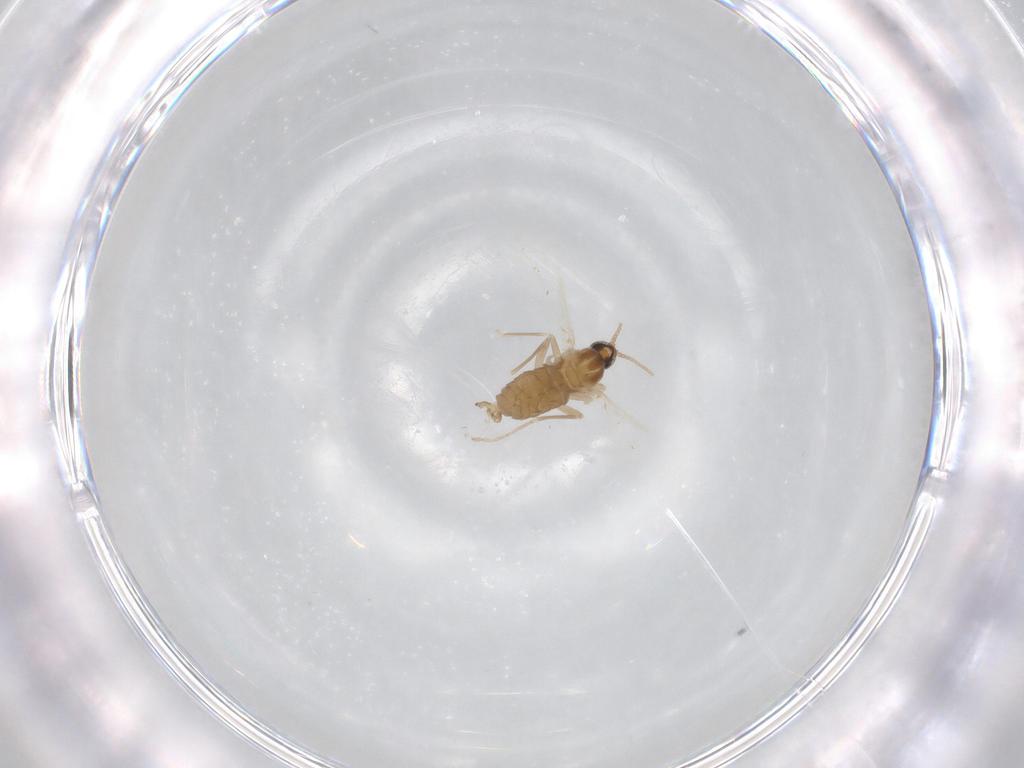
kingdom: Animalia
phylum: Arthropoda
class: Insecta
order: Diptera
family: Cecidomyiidae
